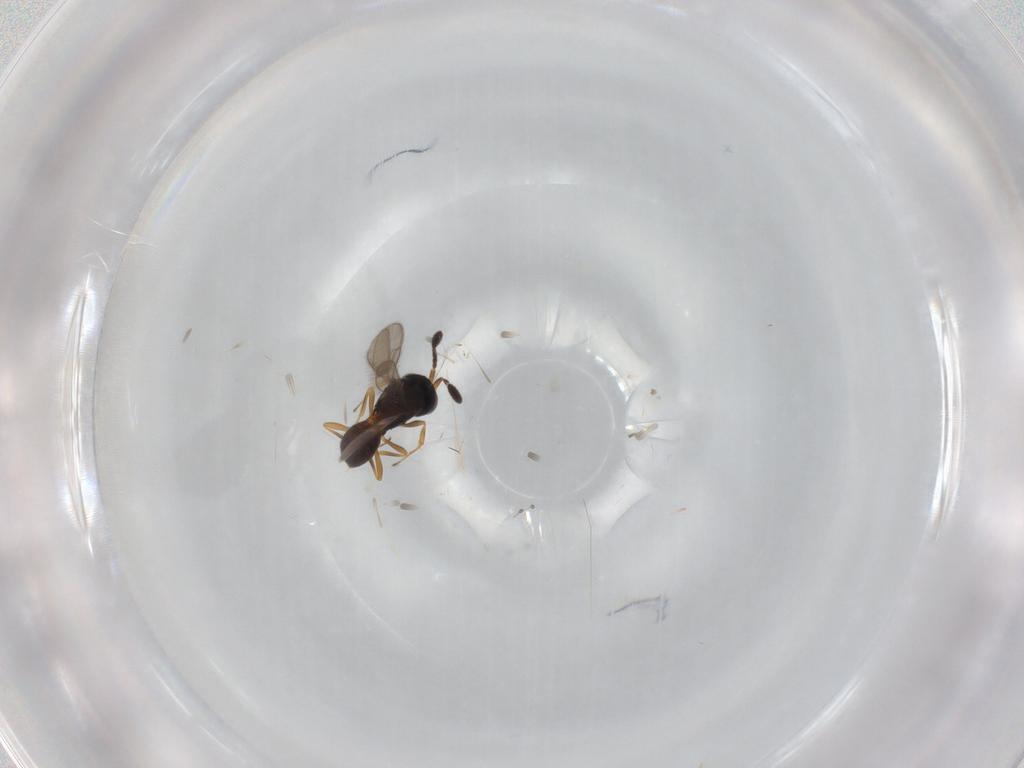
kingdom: Animalia
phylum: Arthropoda
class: Insecta
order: Hymenoptera
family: Scelionidae
